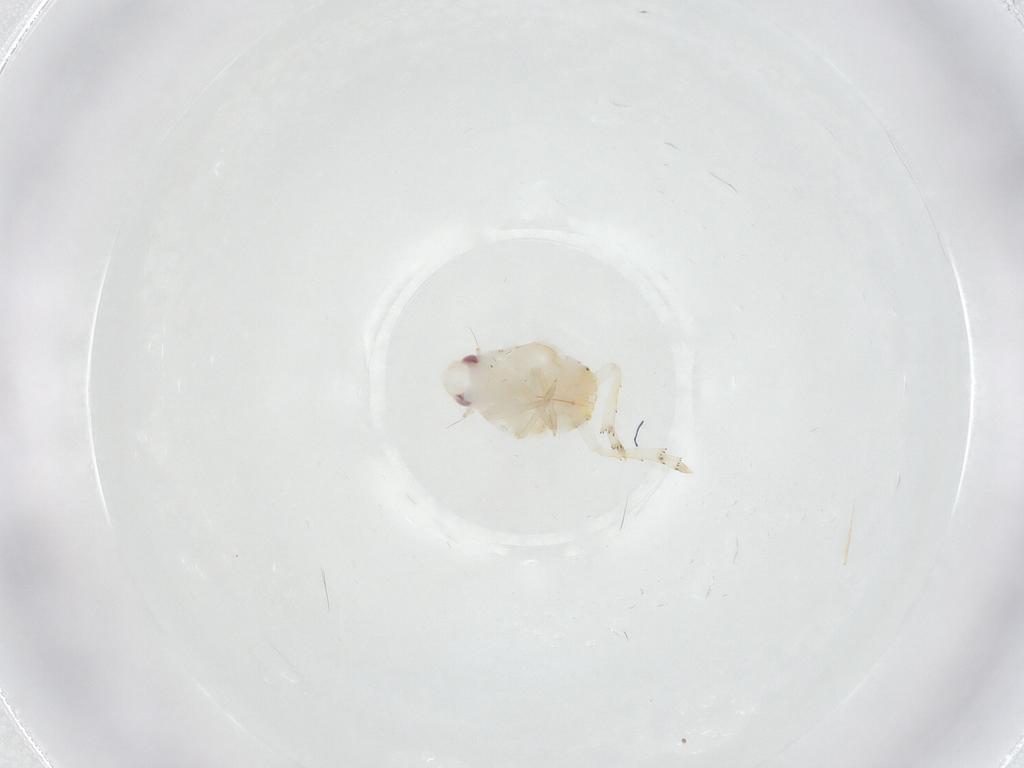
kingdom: Animalia
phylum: Arthropoda
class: Insecta
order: Hemiptera
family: Flatidae
